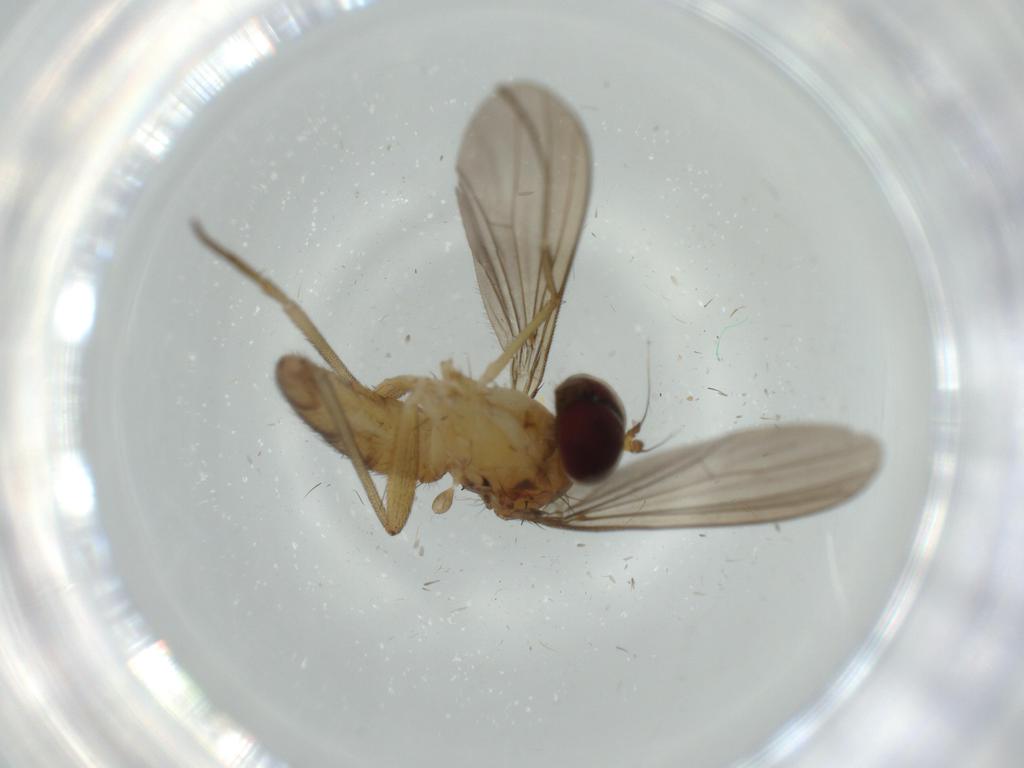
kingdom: Animalia
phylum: Arthropoda
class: Insecta
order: Diptera
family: Dolichopodidae
